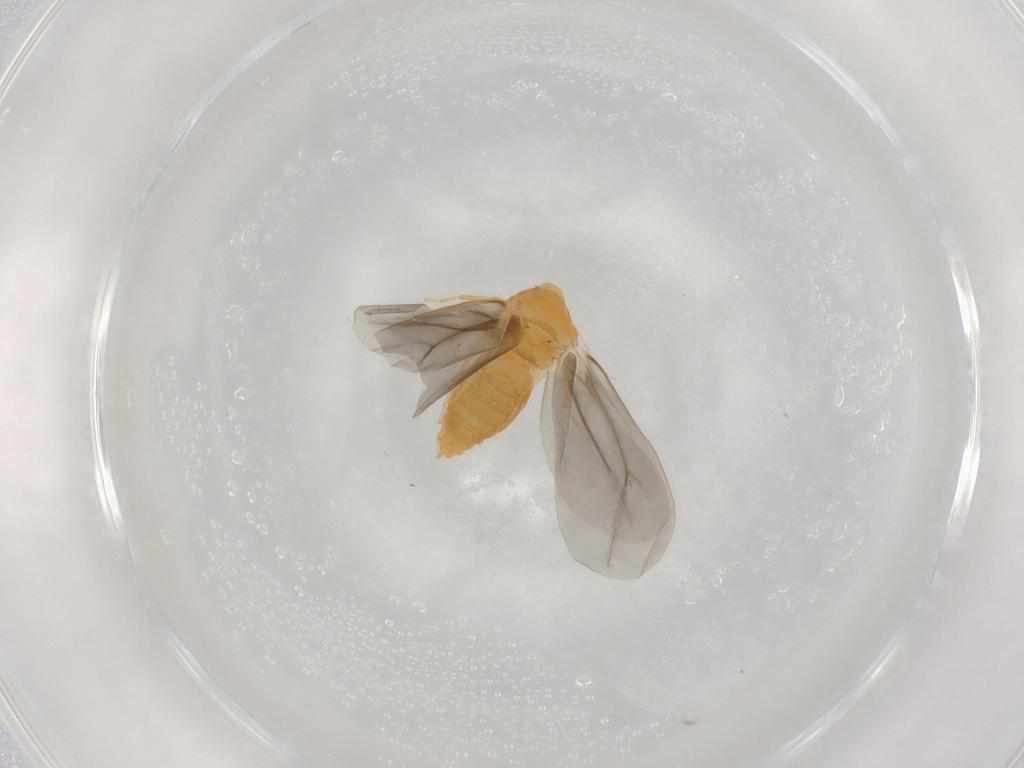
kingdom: Animalia
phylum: Arthropoda
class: Insecta
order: Hemiptera
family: Aleyrodidae
